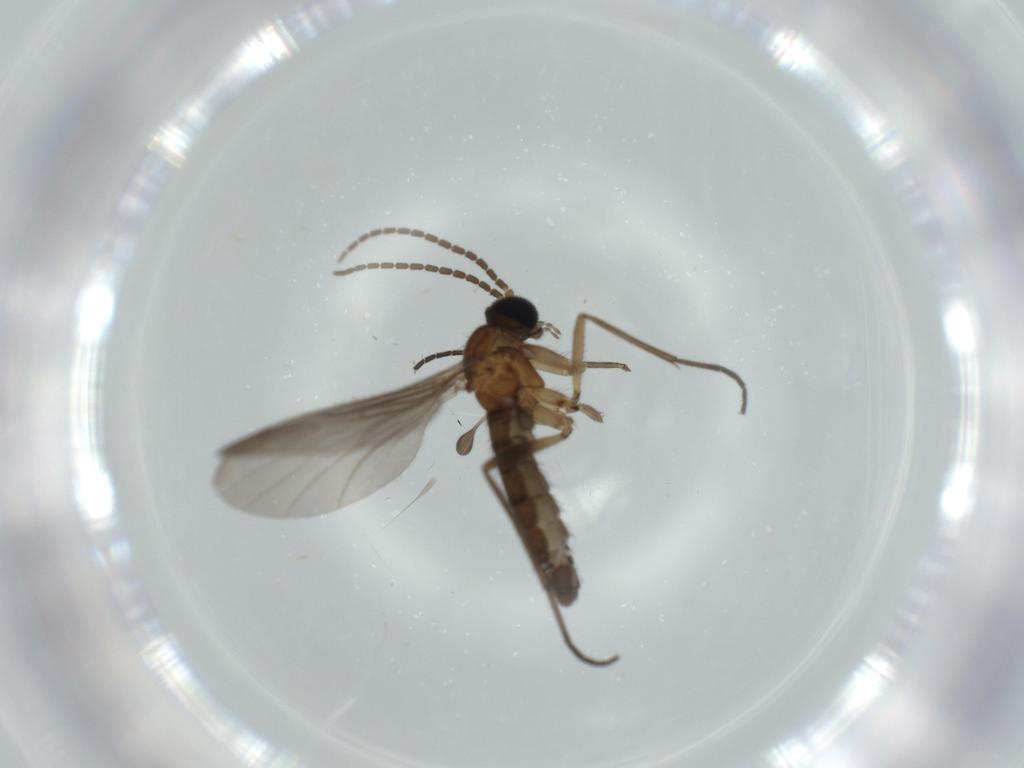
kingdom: Animalia
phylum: Arthropoda
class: Insecta
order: Diptera
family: Sciaridae
